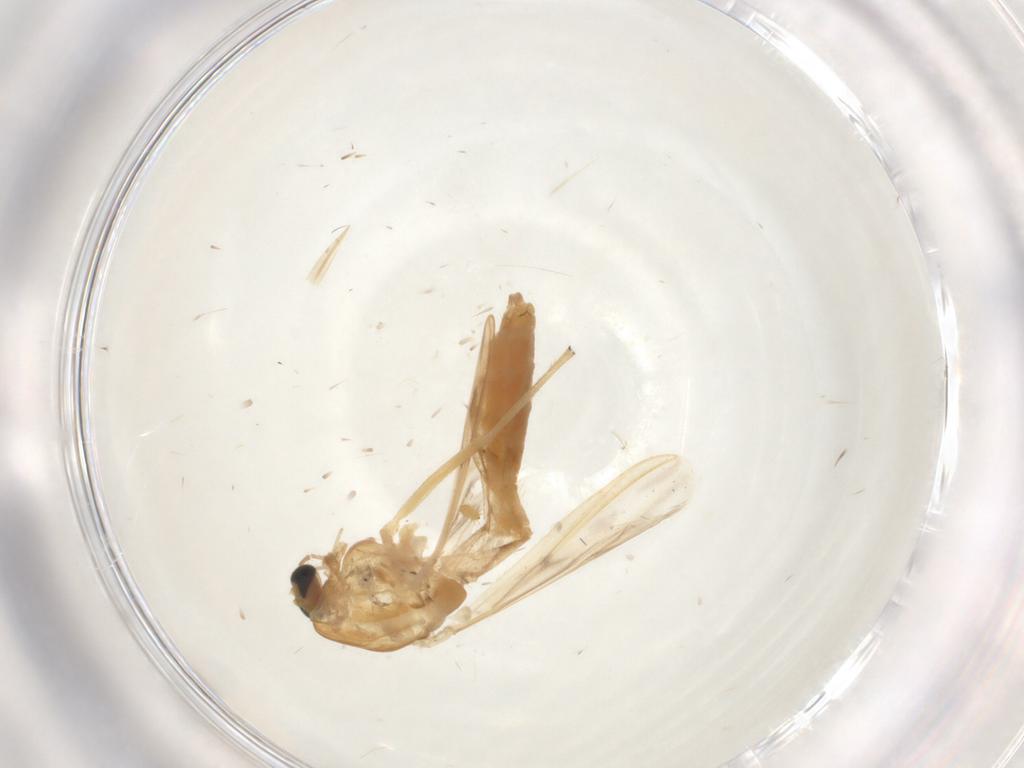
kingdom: Animalia
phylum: Arthropoda
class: Insecta
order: Diptera
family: Chironomidae
